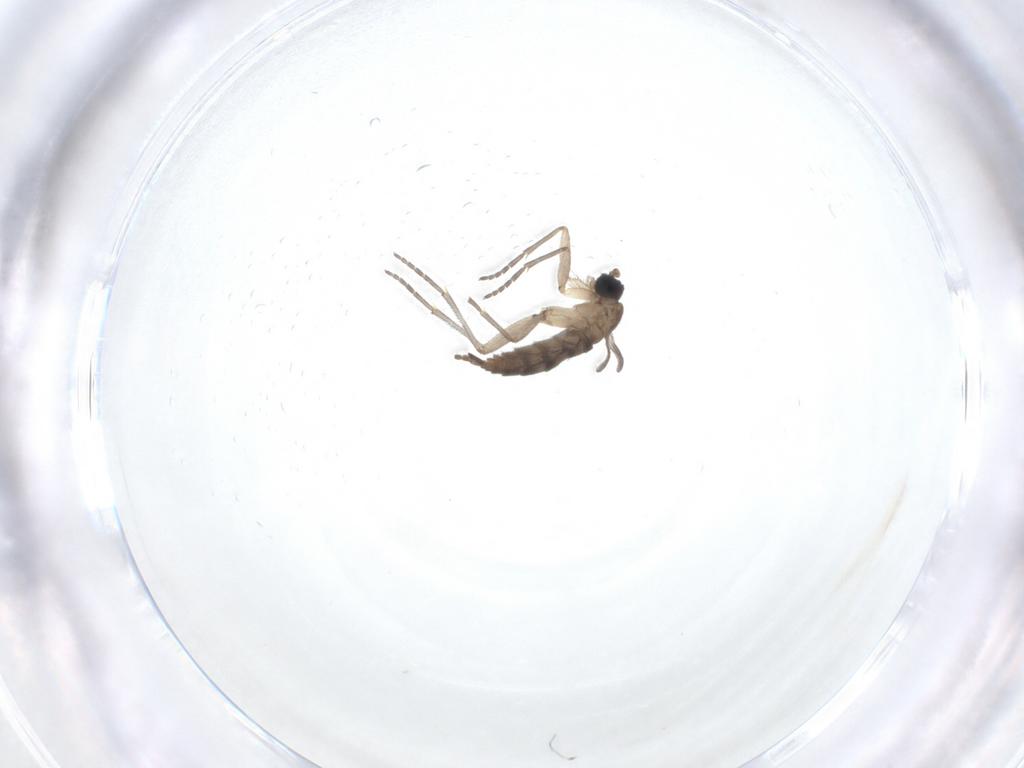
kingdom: Animalia
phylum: Arthropoda
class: Insecta
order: Diptera
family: Sciaridae
